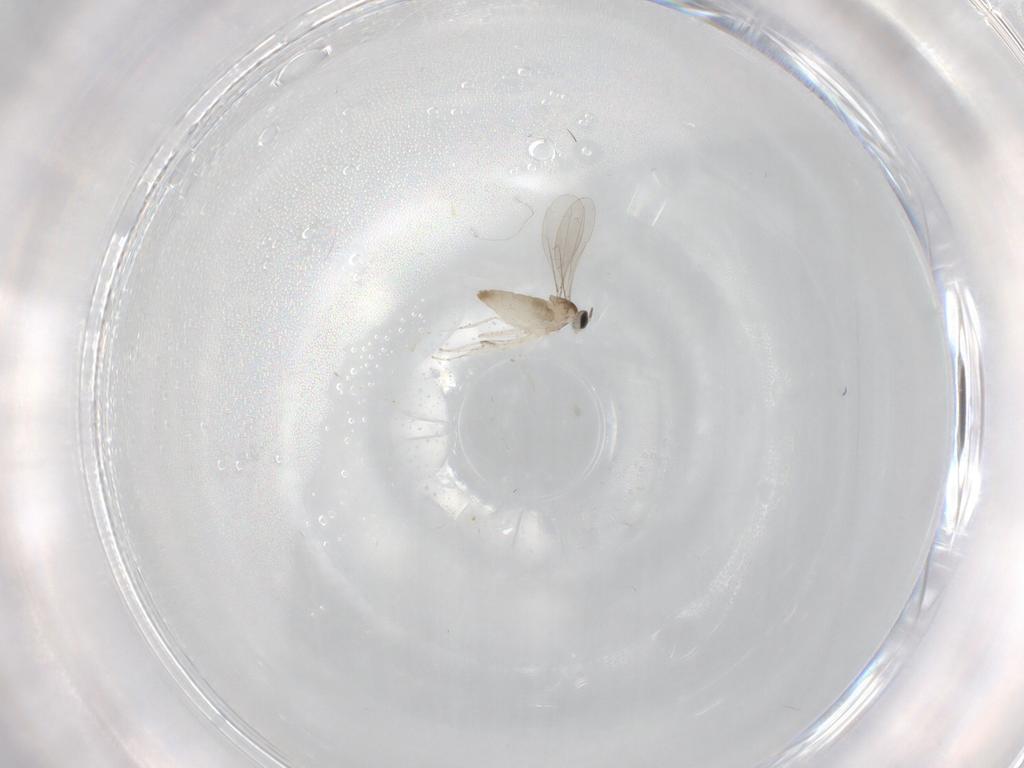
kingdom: Animalia
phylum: Arthropoda
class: Insecta
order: Diptera
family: Sciaridae
